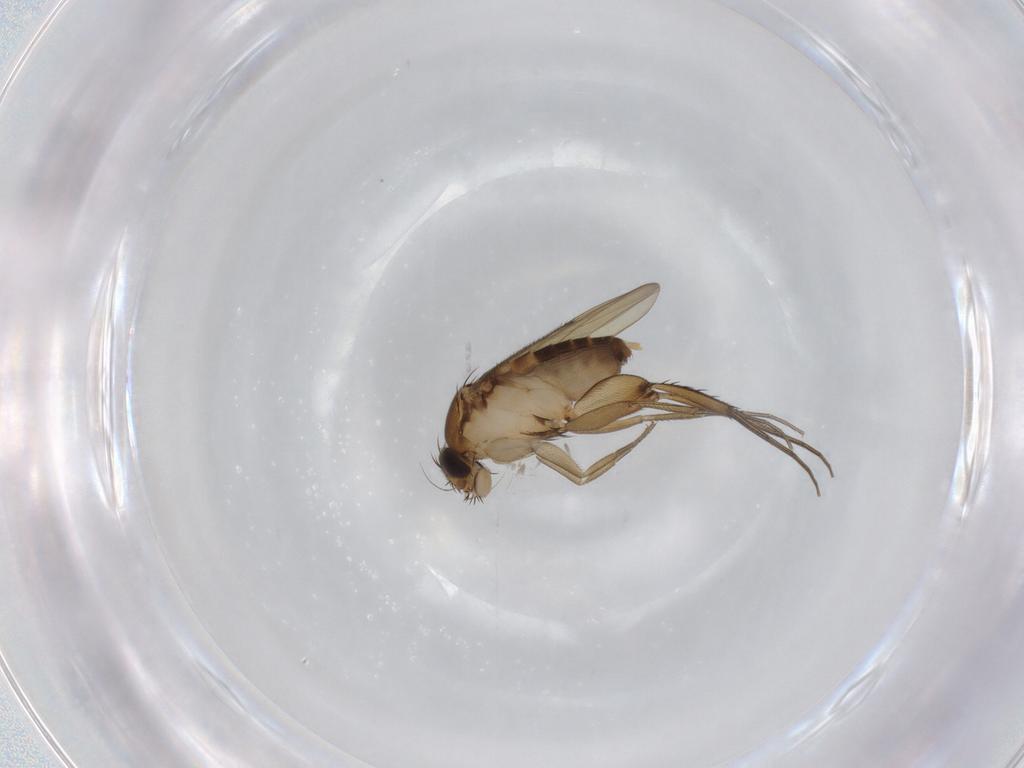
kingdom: Animalia
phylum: Arthropoda
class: Insecta
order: Diptera
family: Phoridae
